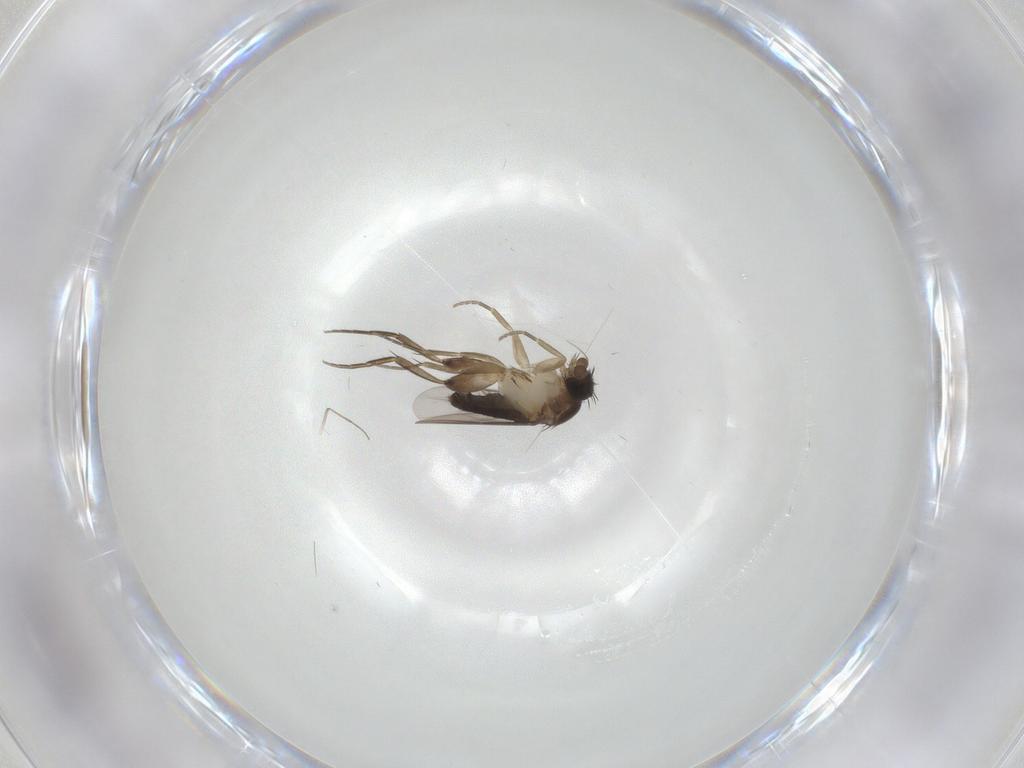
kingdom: Animalia
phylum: Arthropoda
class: Insecta
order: Diptera
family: Phoridae
